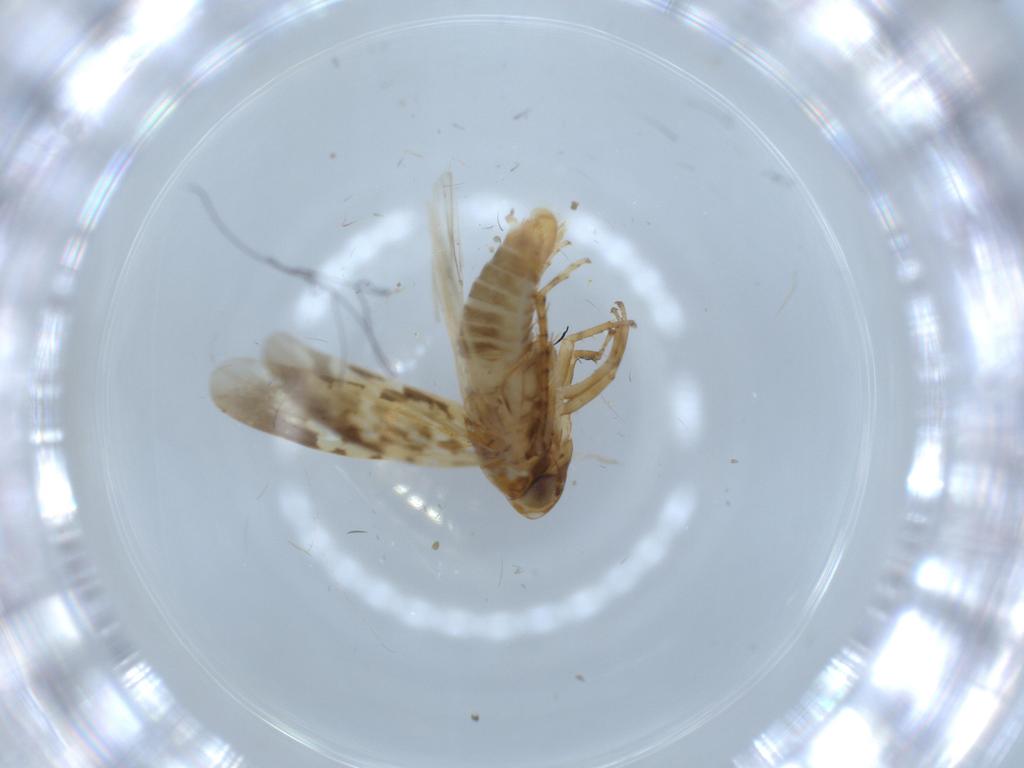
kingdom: Animalia
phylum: Arthropoda
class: Insecta
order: Hemiptera
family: Cicadellidae
